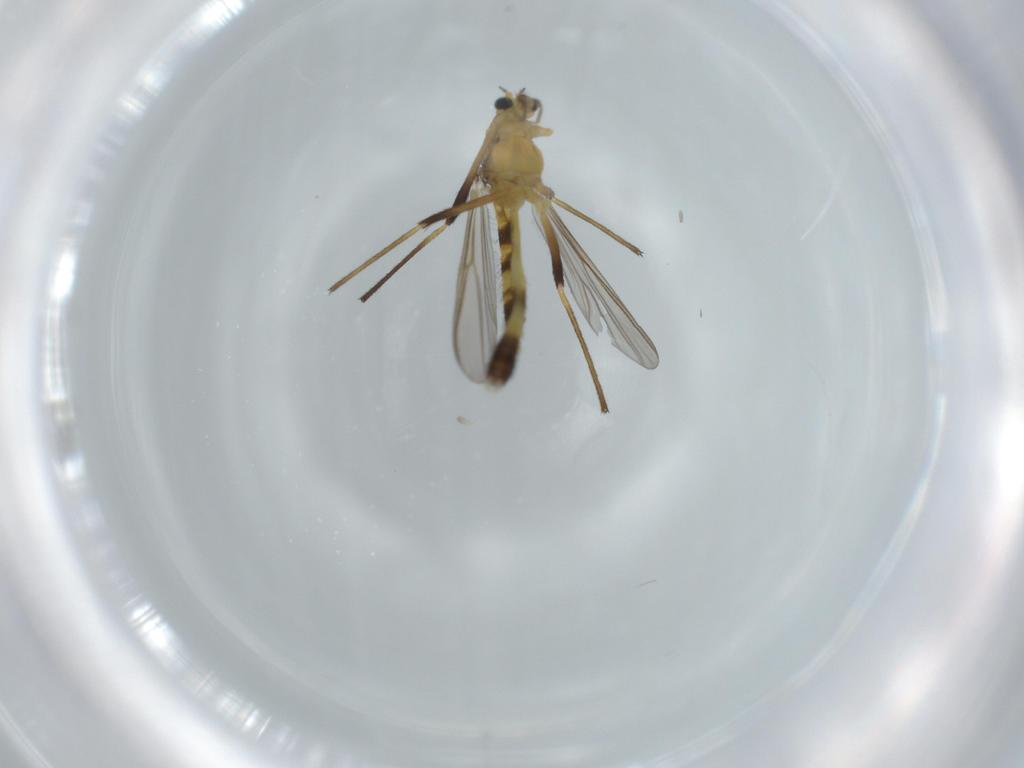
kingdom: Animalia
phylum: Arthropoda
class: Insecta
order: Diptera
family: Chironomidae
